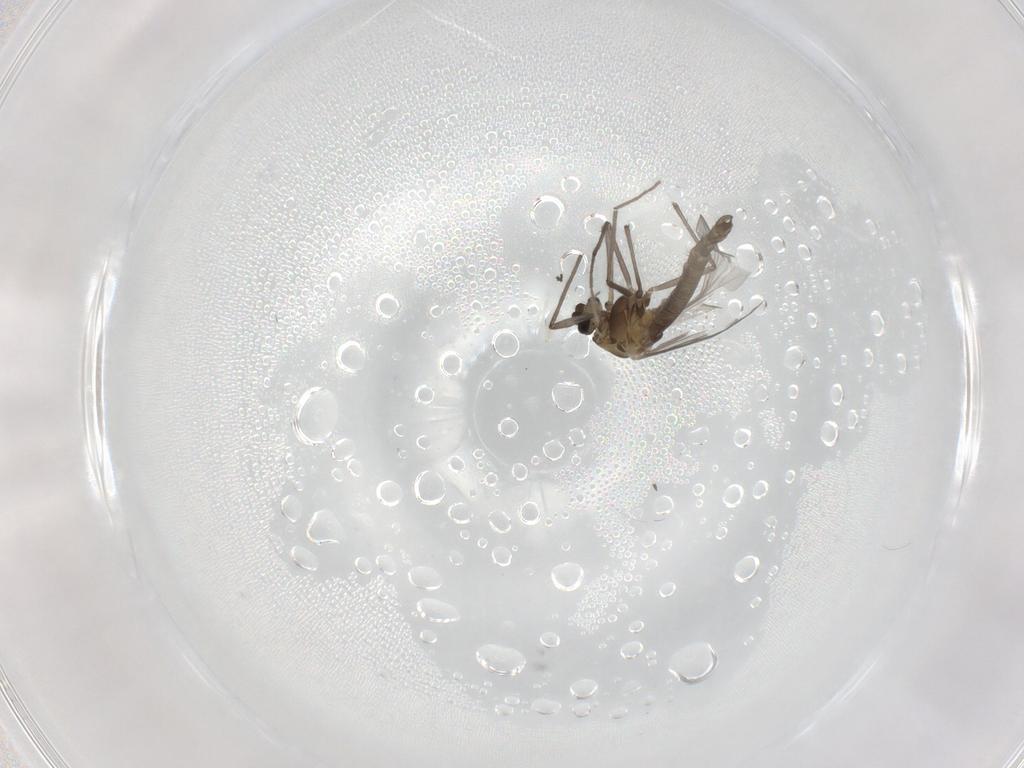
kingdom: Animalia
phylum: Arthropoda
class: Insecta
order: Diptera
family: Chironomidae
